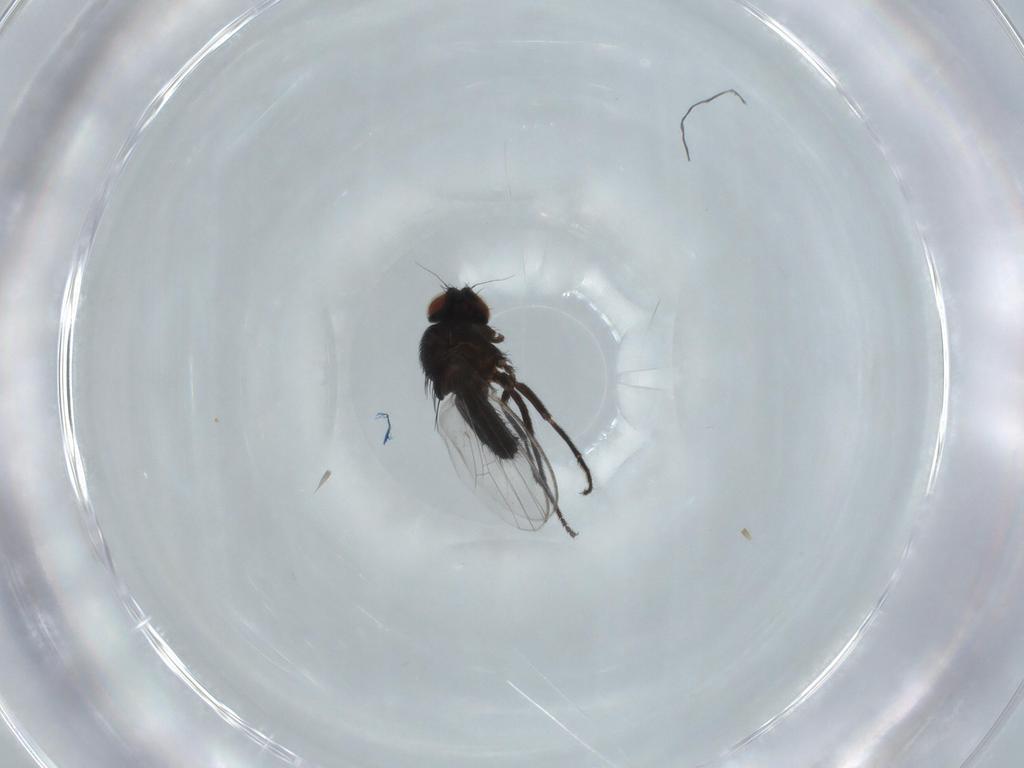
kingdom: Animalia
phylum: Arthropoda
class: Insecta
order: Diptera
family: Milichiidae
